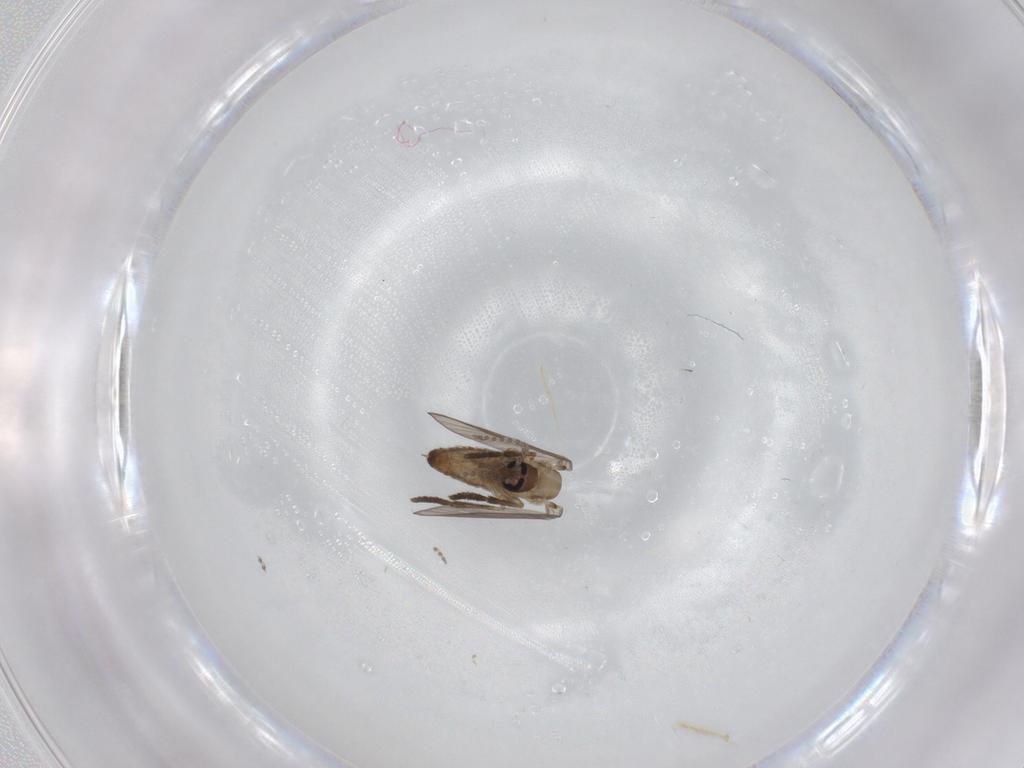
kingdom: Animalia
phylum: Arthropoda
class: Insecta
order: Diptera
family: Psychodidae
